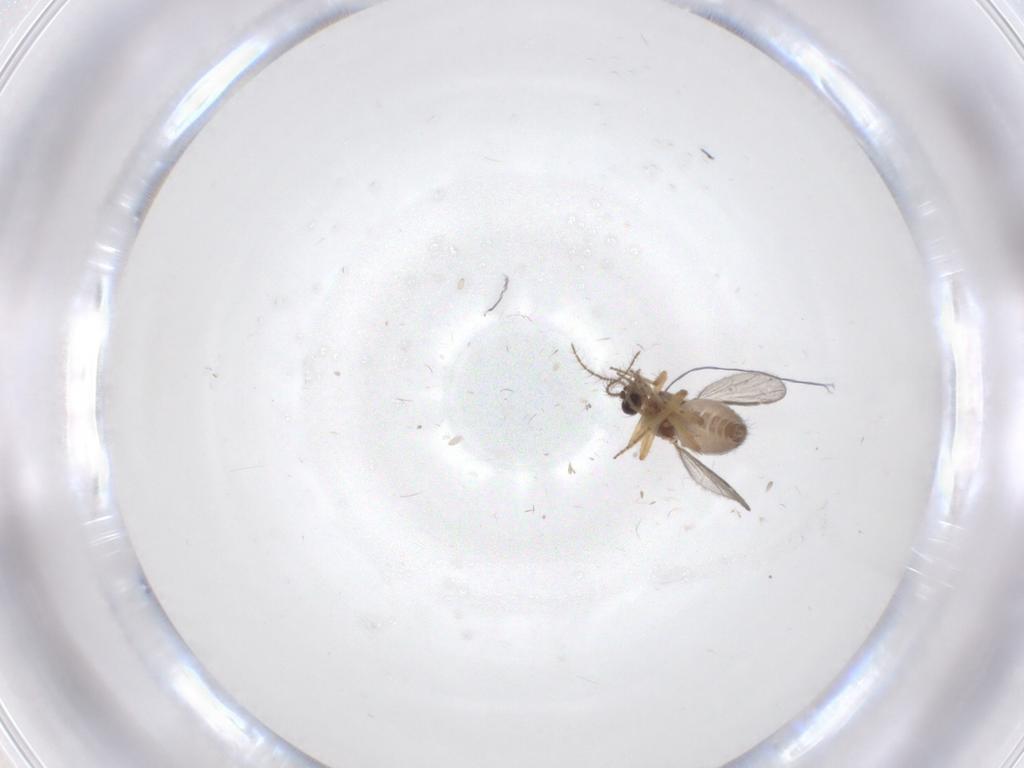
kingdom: Animalia
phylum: Arthropoda
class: Insecta
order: Diptera
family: Ceratopogonidae
